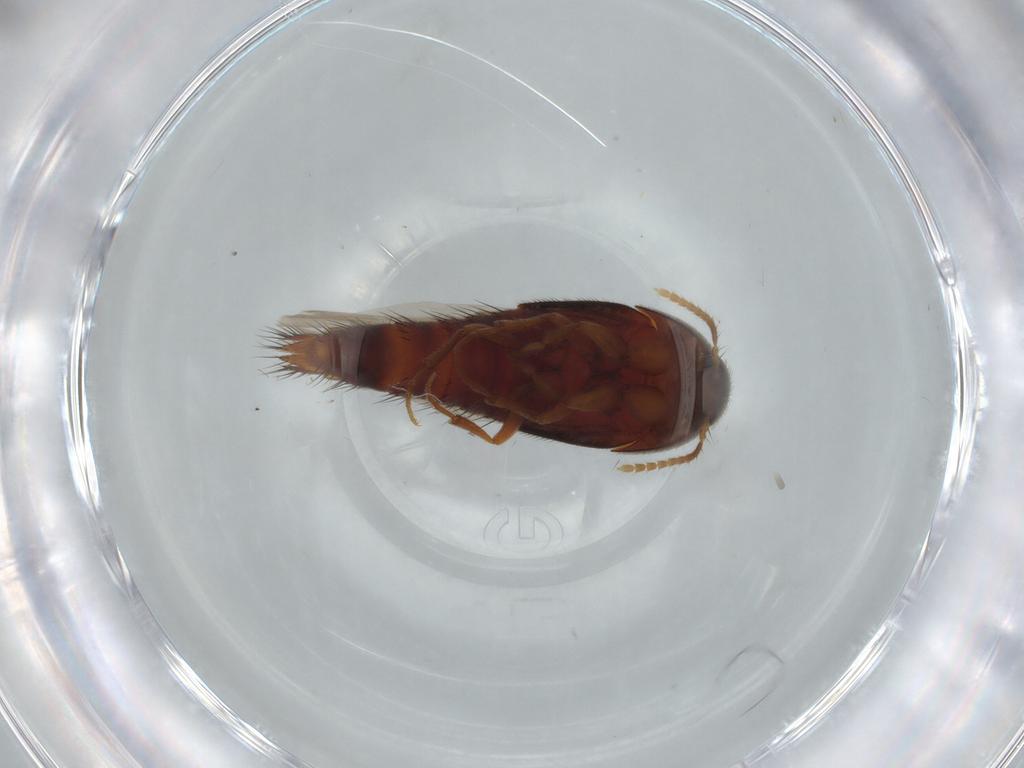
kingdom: Animalia
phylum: Arthropoda
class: Insecta
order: Coleoptera
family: Staphylinidae
